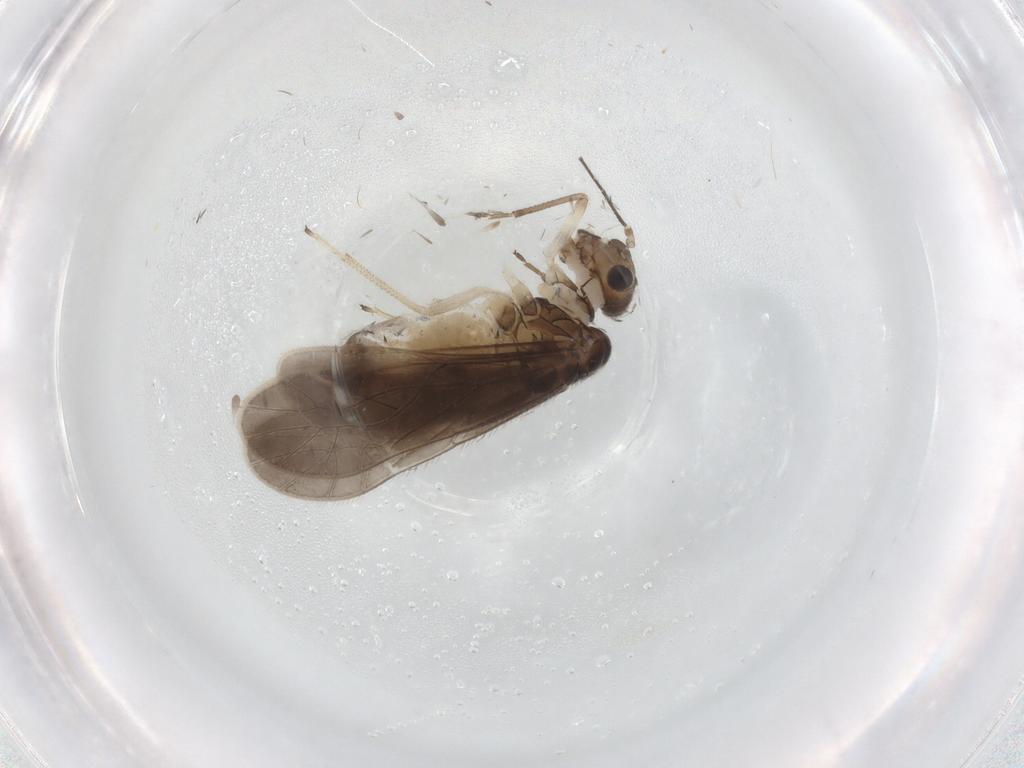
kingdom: Animalia
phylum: Arthropoda
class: Insecta
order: Psocodea
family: Caeciliusidae
